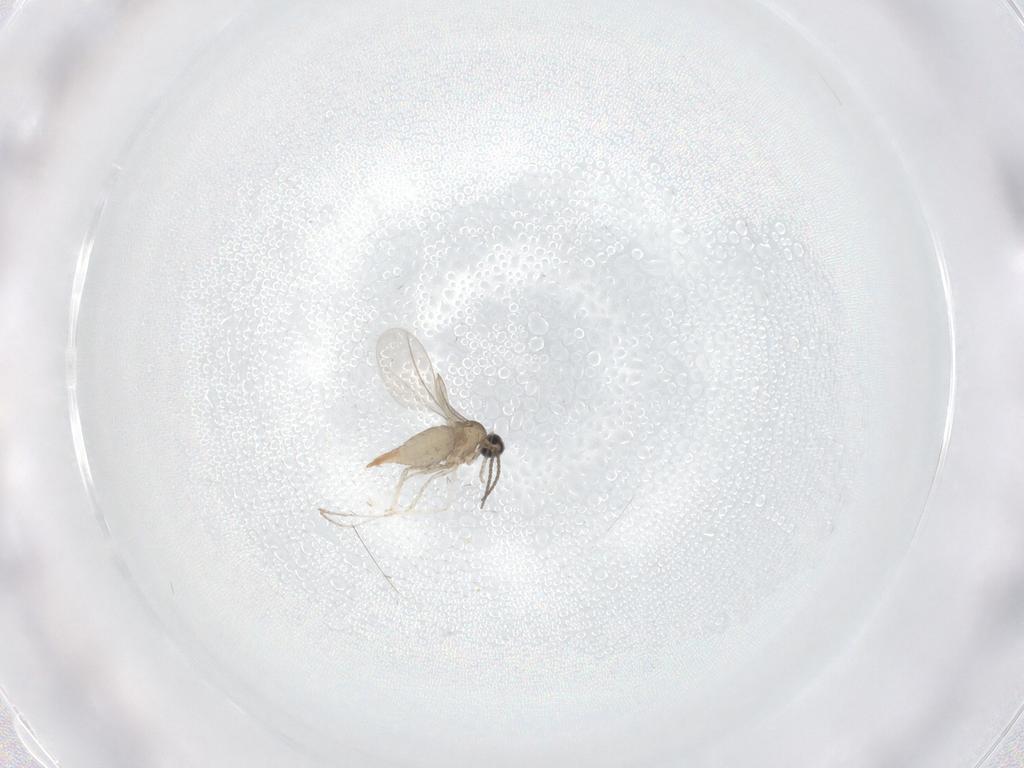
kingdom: Animalia
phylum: Arthropoda
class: Insecta
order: Diptera
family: Cecidomyiidae
